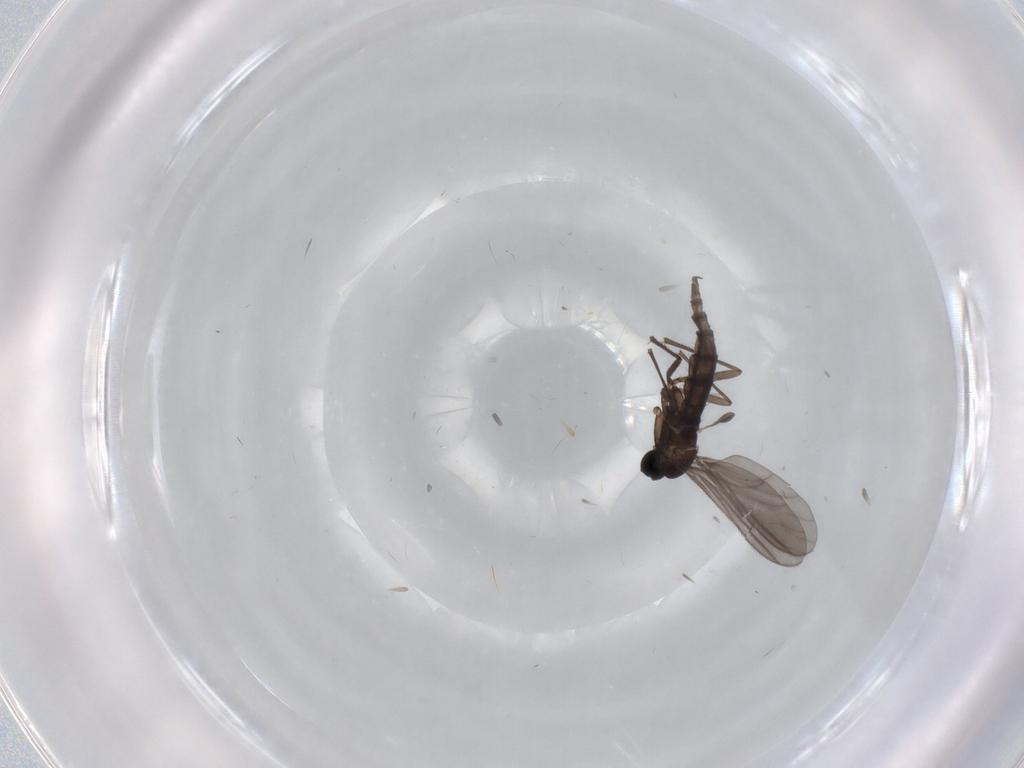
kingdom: Animalia
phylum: Arthropoda
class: Insecta
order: Diptera
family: Sciaridae
